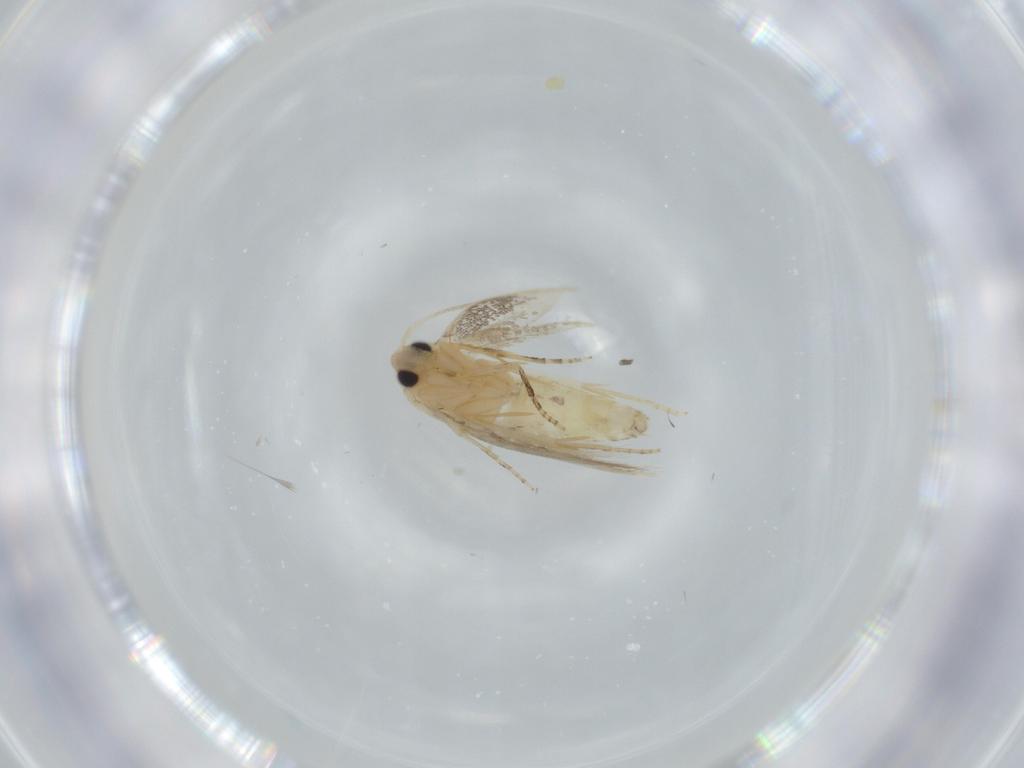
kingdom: Animalia
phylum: Arthropoda
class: Insecta
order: Lepidoptera
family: Bucculatricidae
